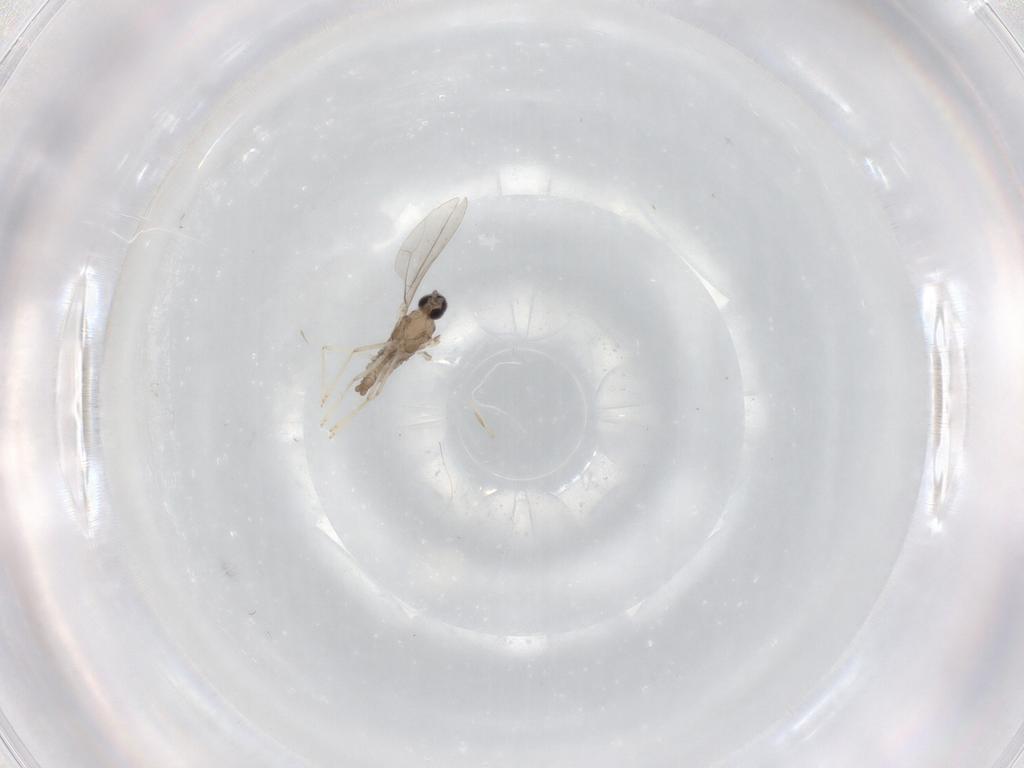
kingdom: Animalia
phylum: Arthropoda
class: Insecta
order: Diptera
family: Cecidomyiidae
